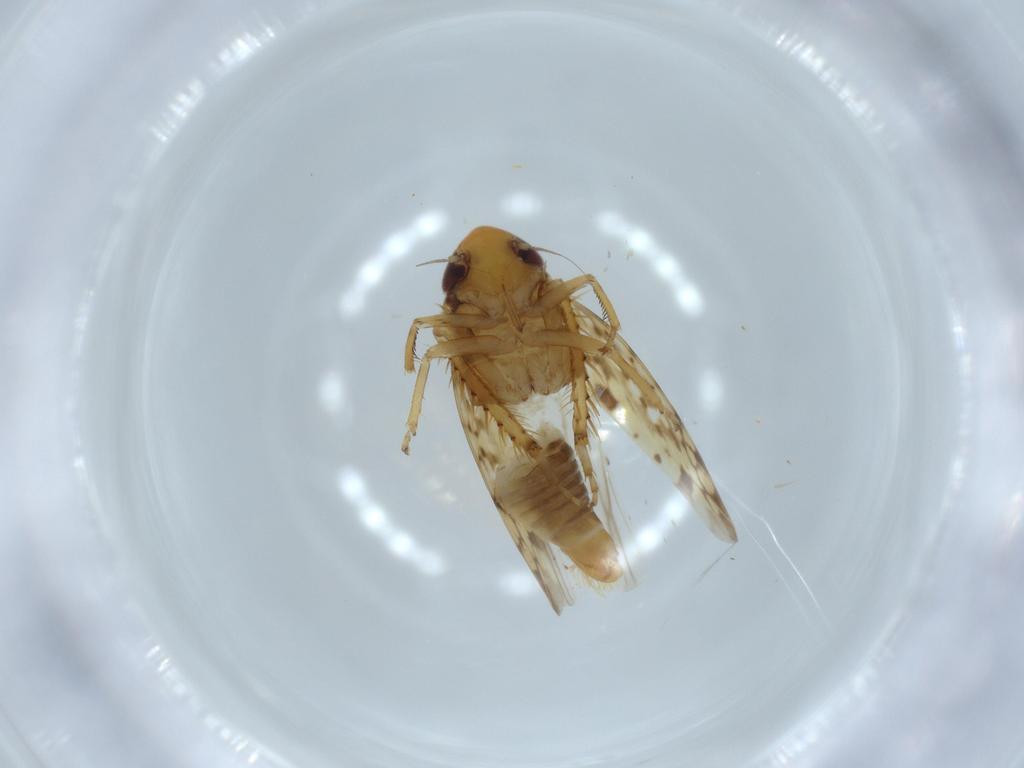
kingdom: Animalia
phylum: Arthropoda
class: Insecta
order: Hemiptera
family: Cicadellidae
